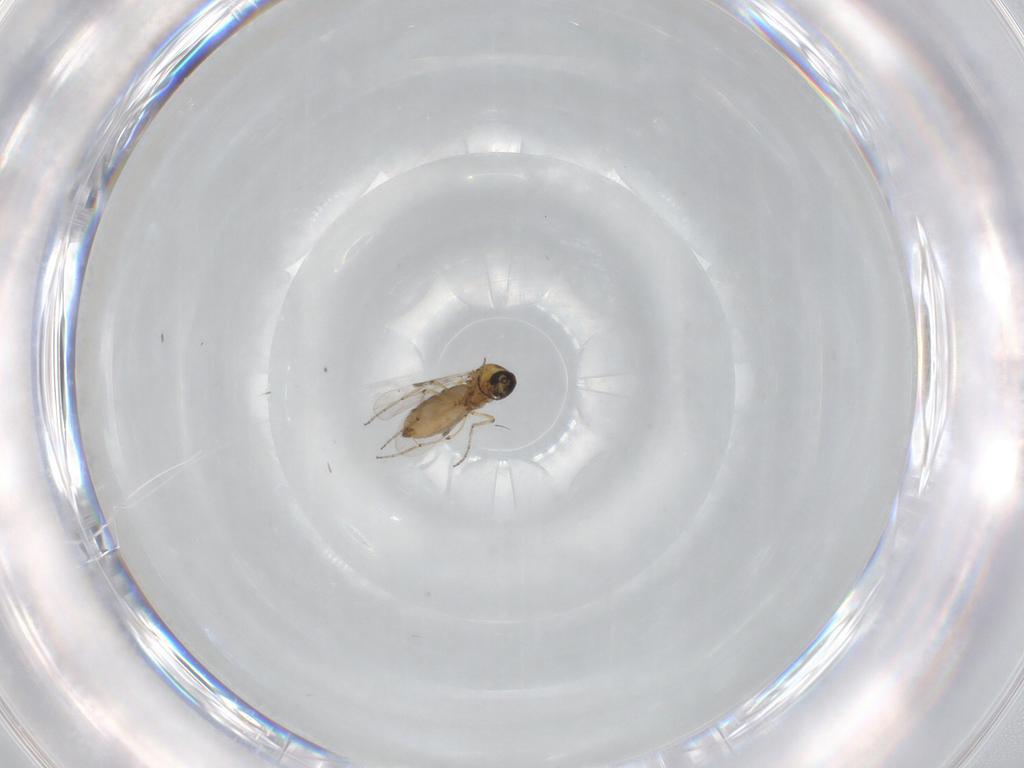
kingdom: Animalia
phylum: Arthropoda
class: Insecta
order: Diptera
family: Ceratopogonidae
